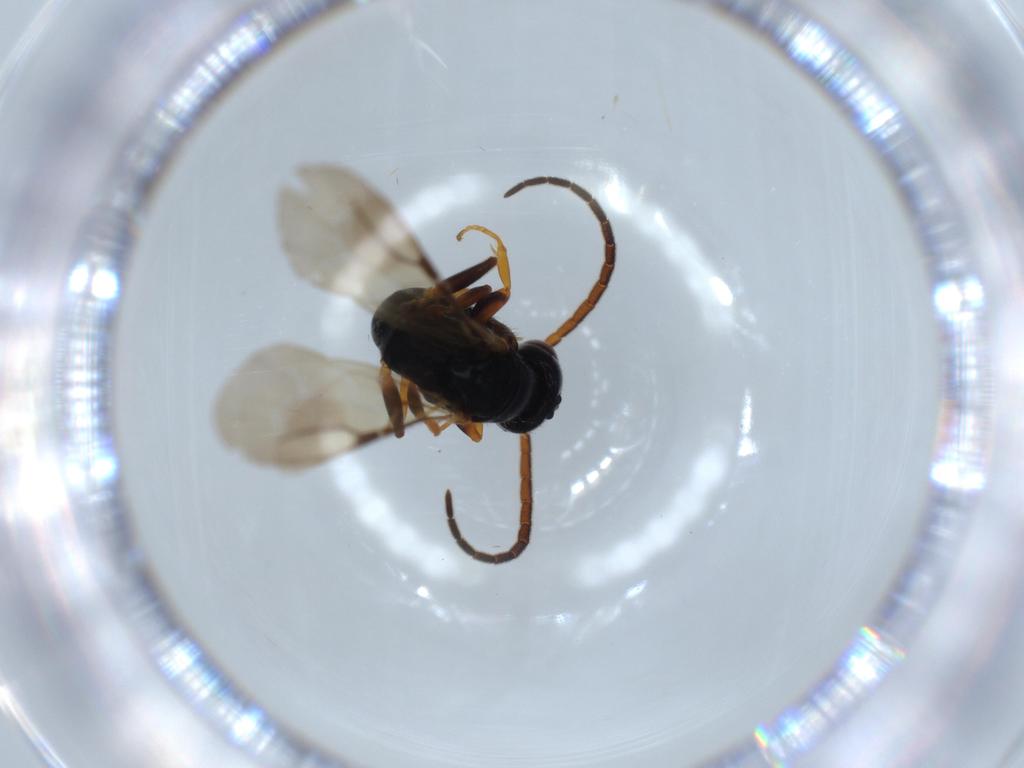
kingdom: Animalia
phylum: Arthropoda
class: Insecta
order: Hymenoptera
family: Bethylidae
